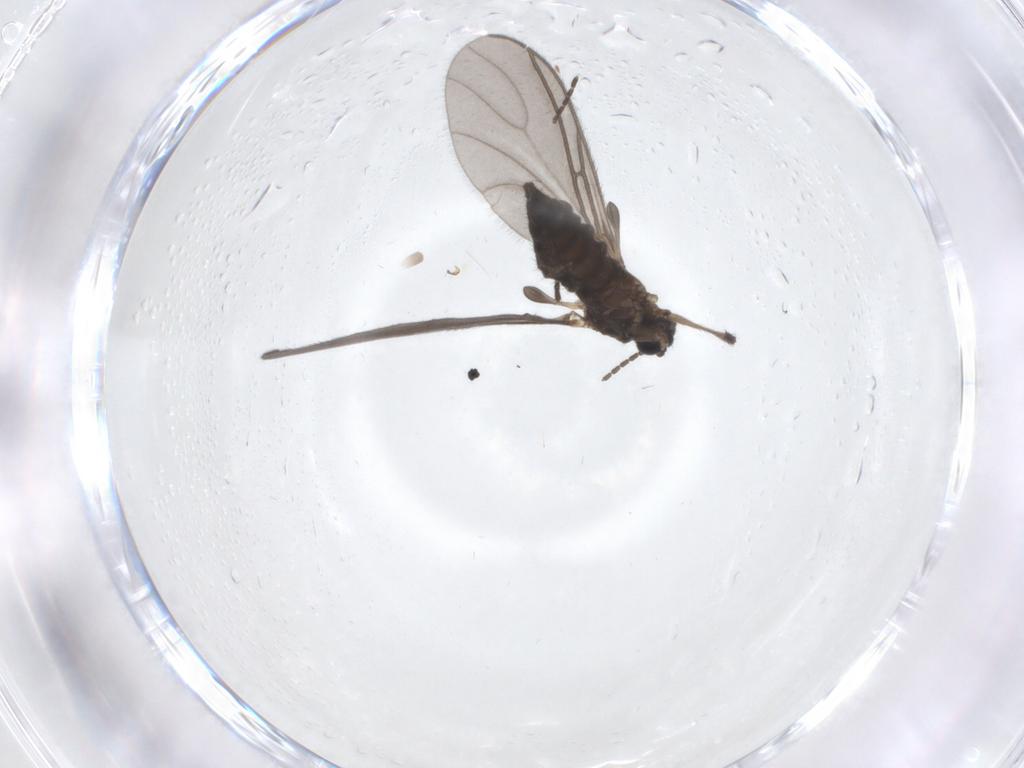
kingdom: Animalia
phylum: Arthropoda
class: Insecta
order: Diptera
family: Sciaridae
